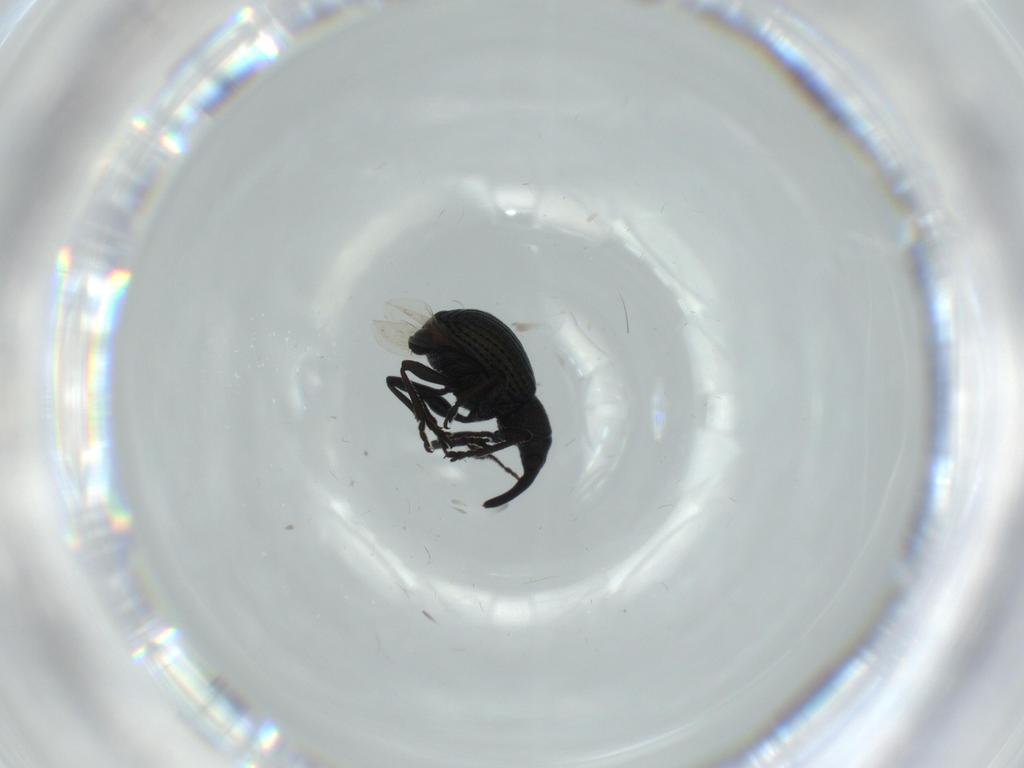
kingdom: Animalia
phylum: Arthropoda
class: Insecta
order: Coleoptera
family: Brentidae
